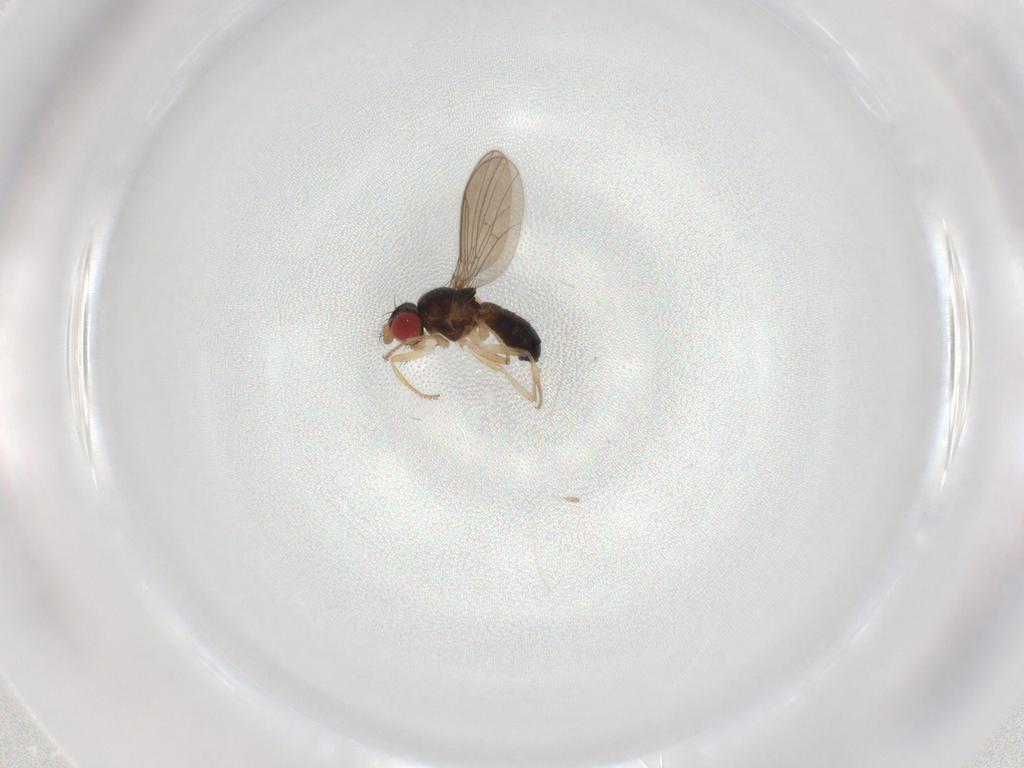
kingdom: Animalia
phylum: Arthropoda
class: Insecta
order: Diptera
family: Drosophilidae
